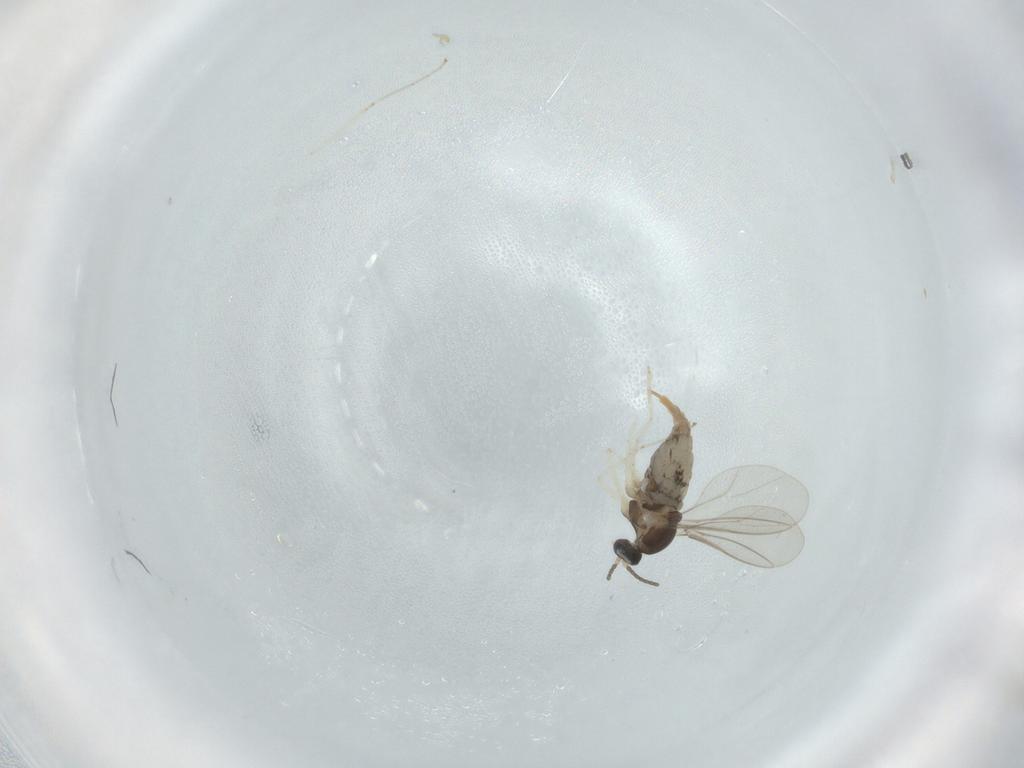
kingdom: Animalia
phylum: Arthropoda
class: Insecta
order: Diptera
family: Cecidomyiidae
